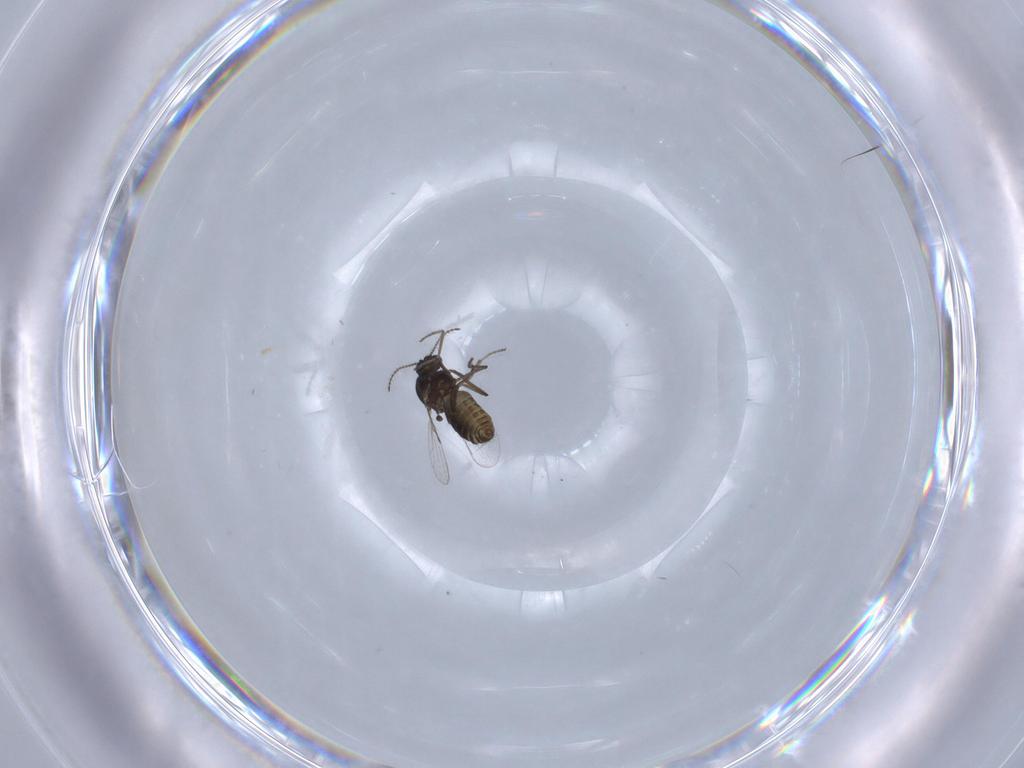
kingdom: Animalia
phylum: Arthropoda
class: Insecta
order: Diptera
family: Ceratopogonidae
